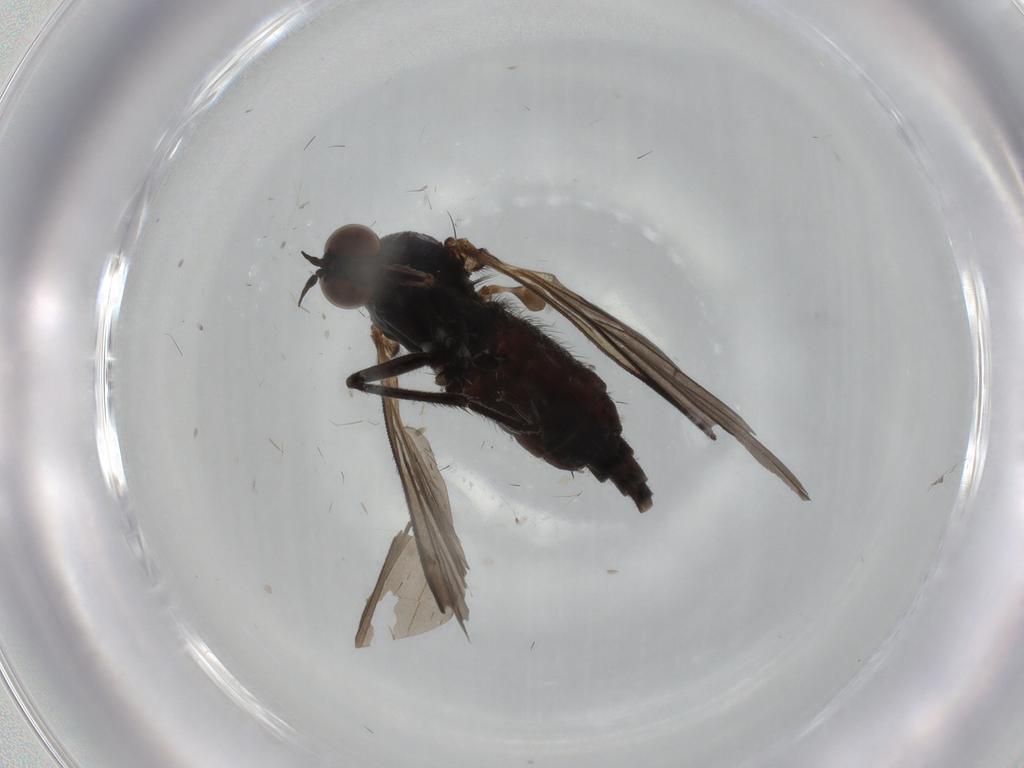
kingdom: Animalia
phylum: Arthropoda
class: Insecta
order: Diptera
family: Empididae
